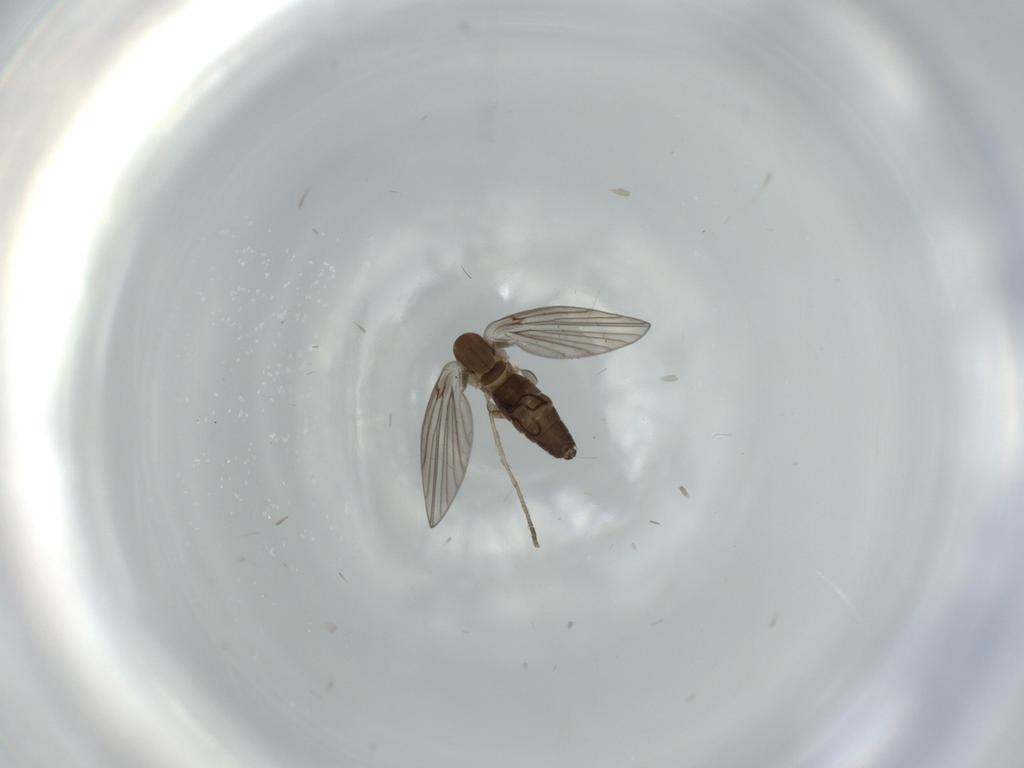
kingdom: Animalia
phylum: Arthropoda
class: Insecta
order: Diptera
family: Psychodidae
